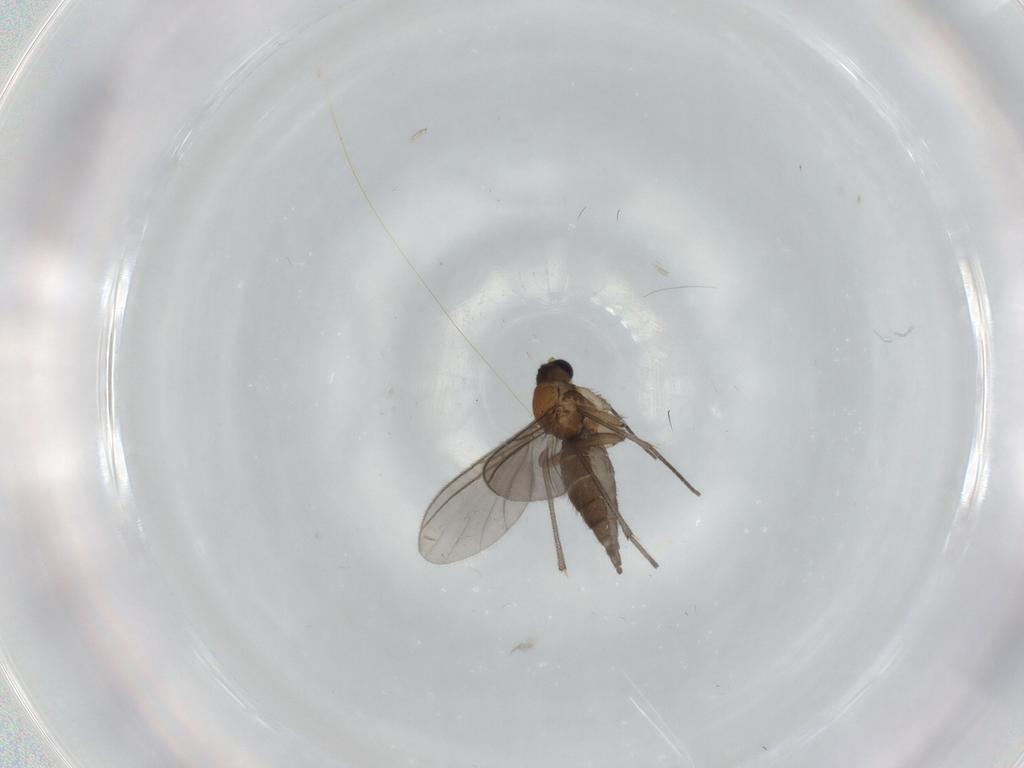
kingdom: Animalia
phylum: Arthropoda
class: Insecta
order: Diptera
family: Sciaridae
